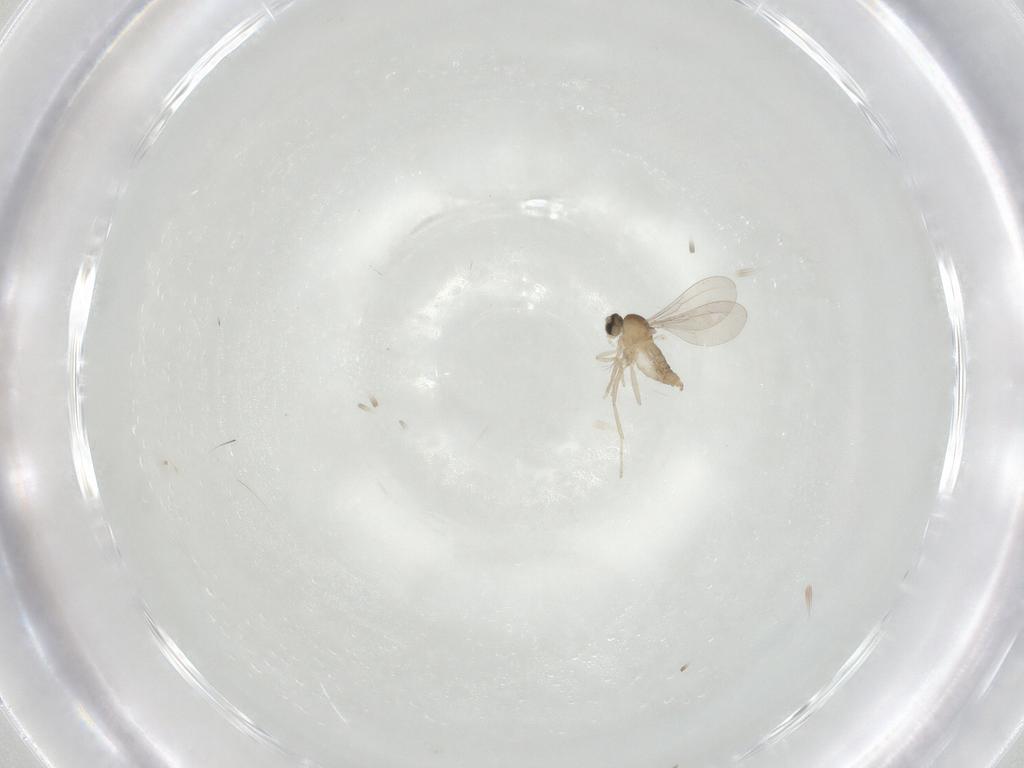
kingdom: Animalia
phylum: Arthropoda
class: Insecta
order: Diptera
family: Cecidomyiidae
